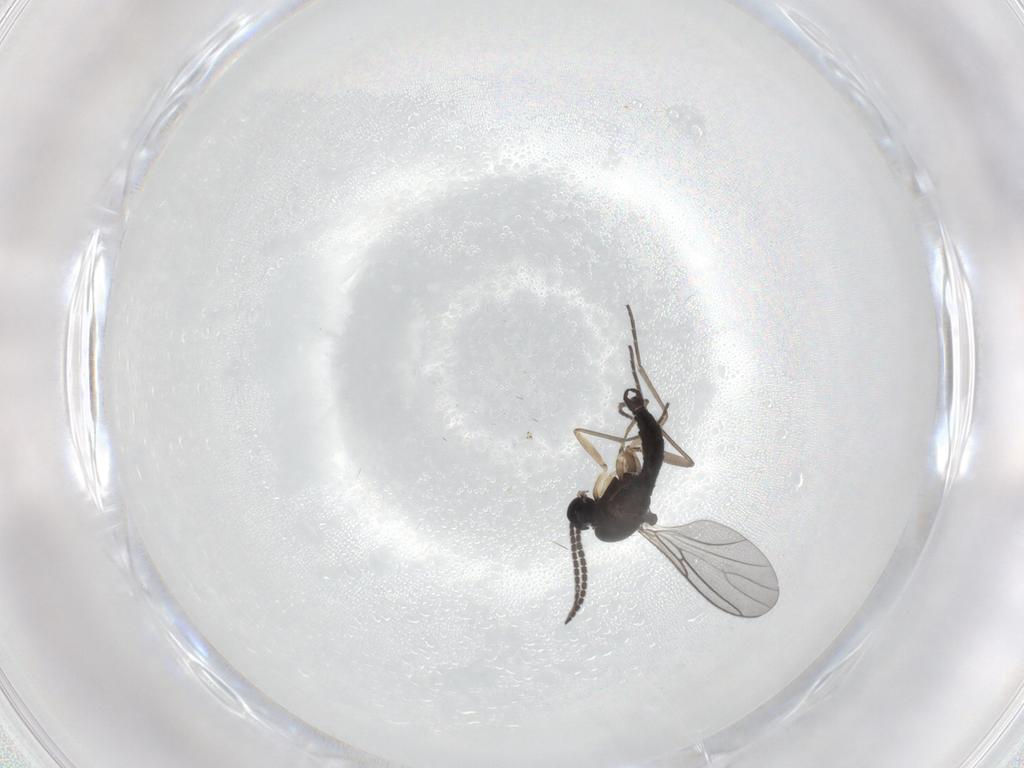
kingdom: Animalia
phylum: Arthropoda
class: Insecta
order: Diptera
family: Sciaridae
